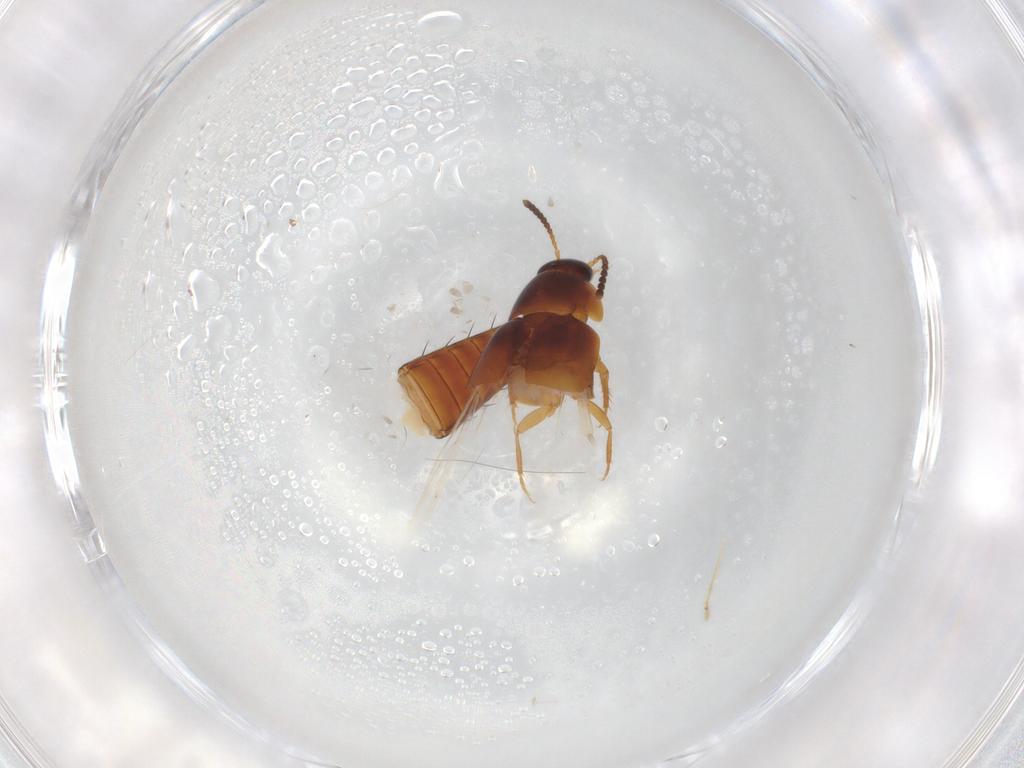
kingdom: Animalia
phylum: Arthropoda
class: Insecta
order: Coleoptera
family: Staphylinidae
